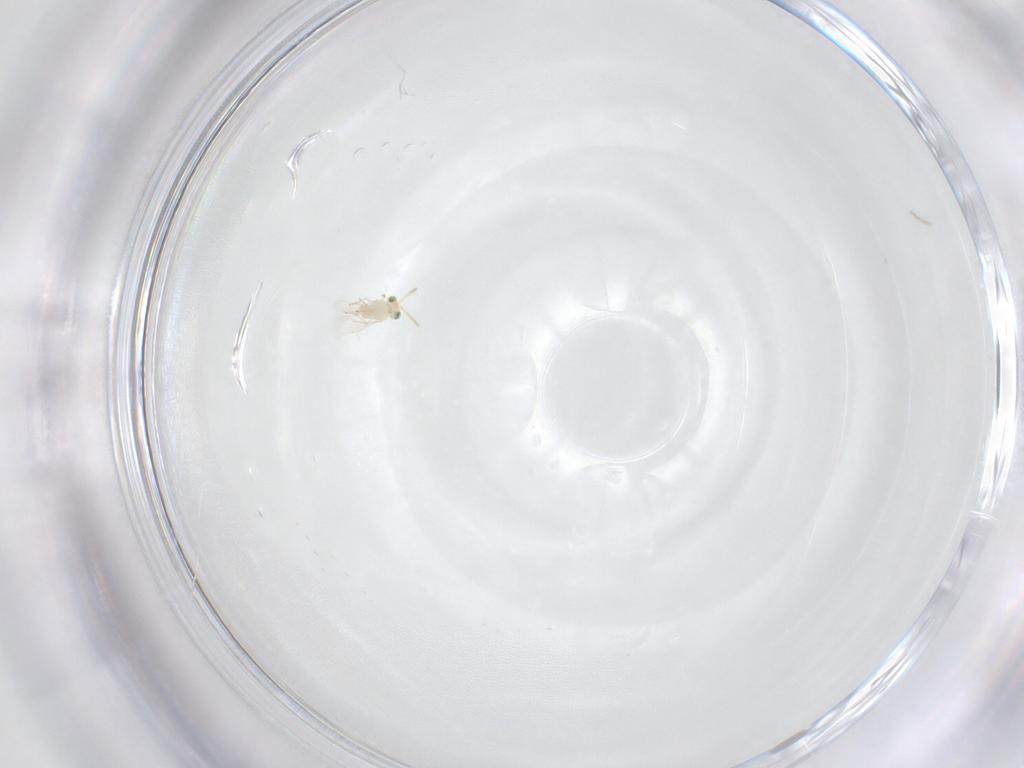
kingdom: Animalia
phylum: Arthropoda
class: Insecta
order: Hymenoptera
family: Aphelinidae
